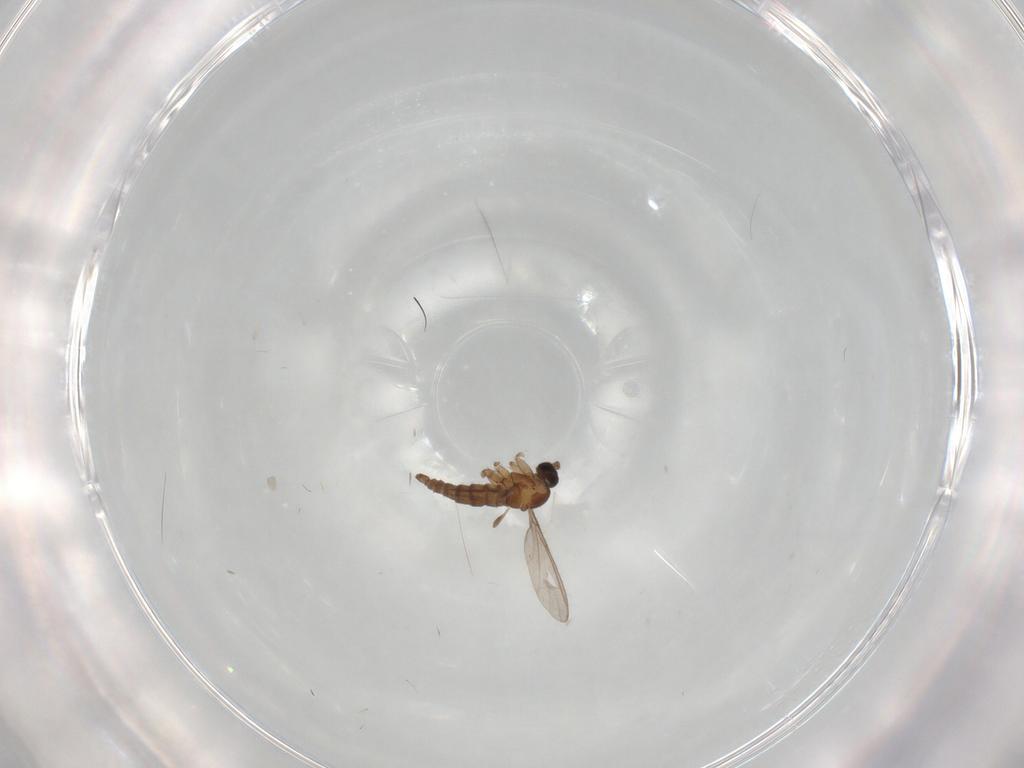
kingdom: Animalia
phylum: Arthropoda
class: Insecta
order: Diptera
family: Cecidomyiidae
